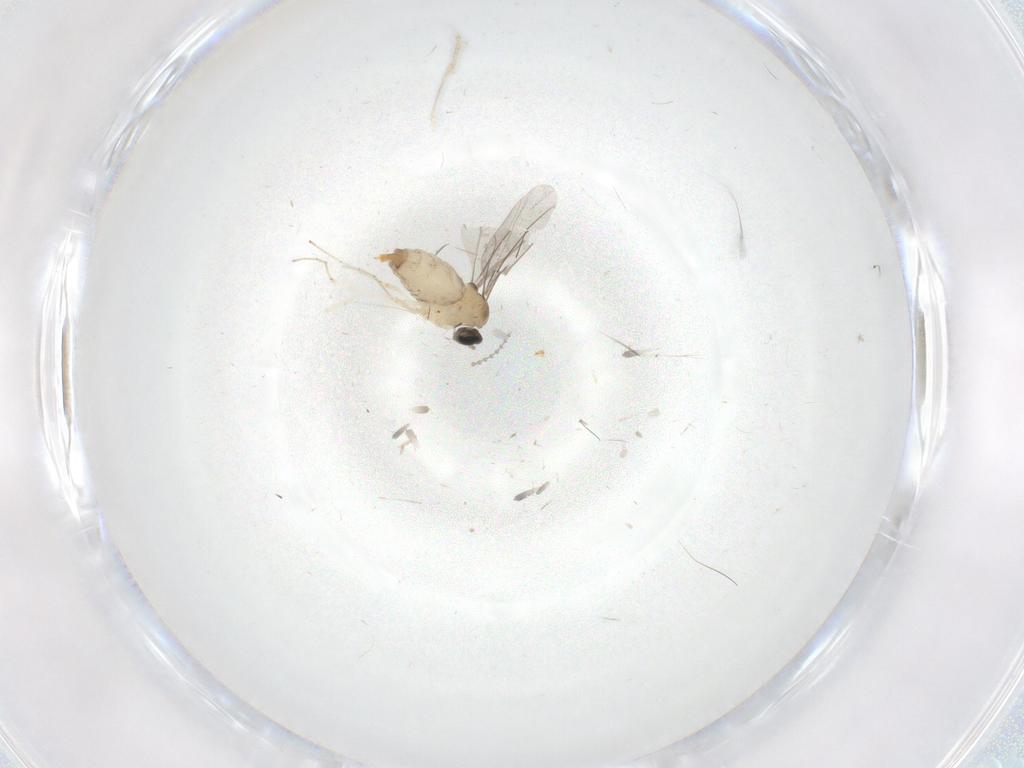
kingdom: Animalia
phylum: Arthropoda
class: Insecta
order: Diptera
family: Cecidomyiidae
